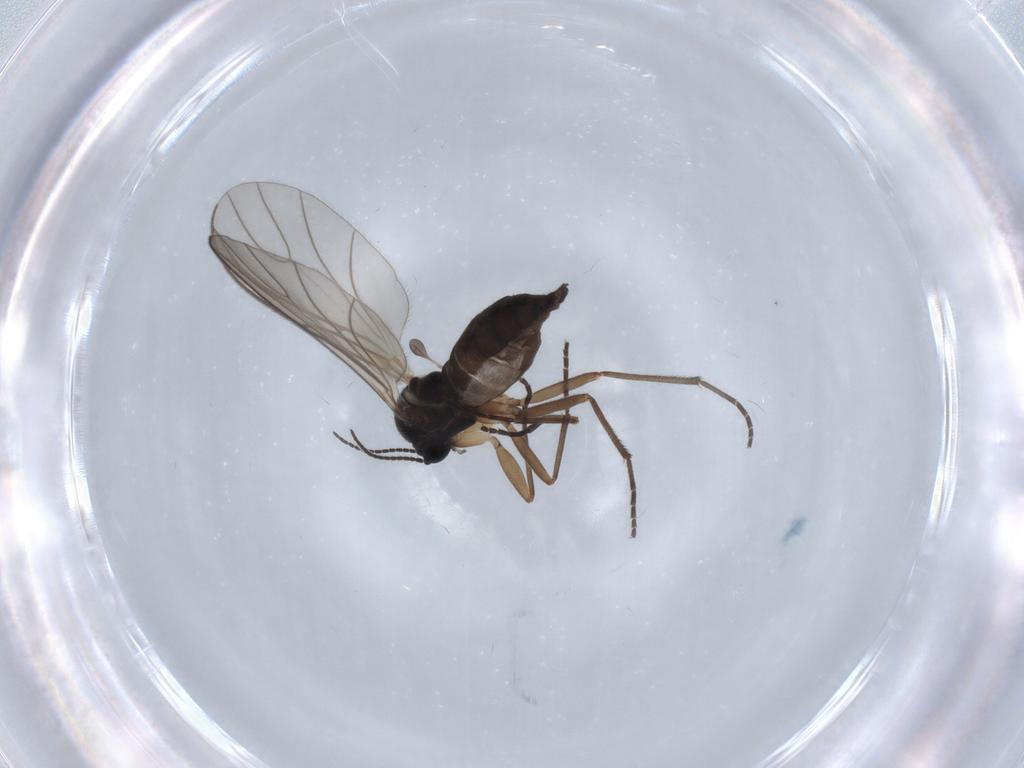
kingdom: Animalia
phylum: Arthropoda
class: Insecta
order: Diptera
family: Sciaridae
